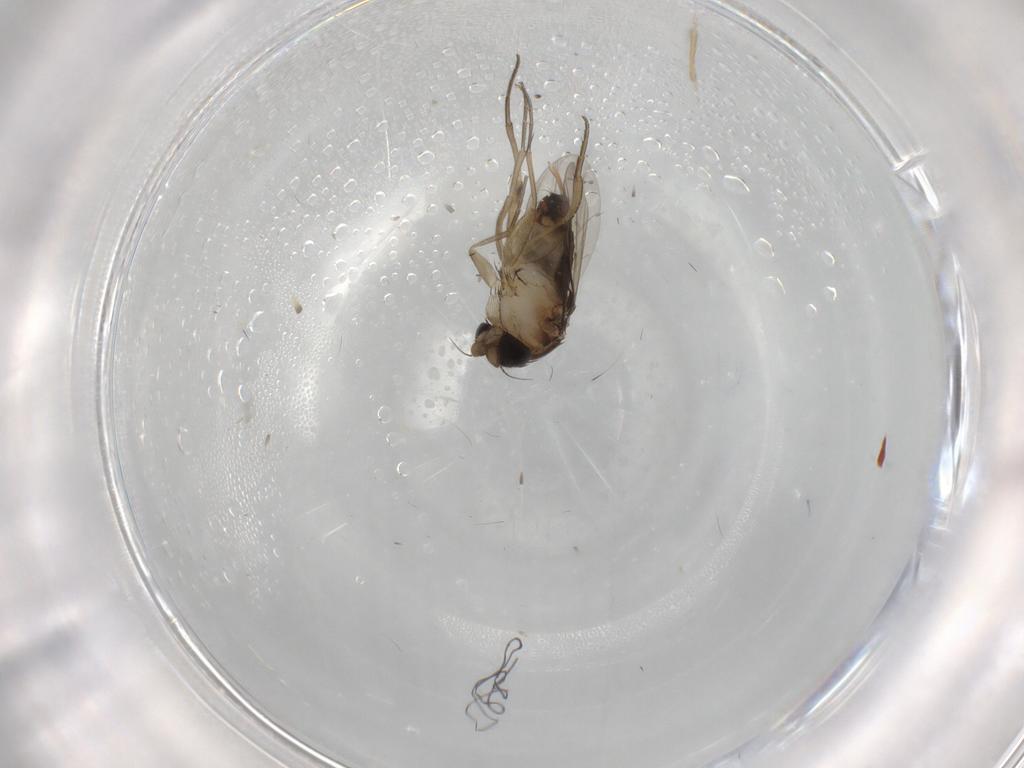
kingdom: Animalia
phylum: Arthropoda
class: Insecta
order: Diptera
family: Phoridae
